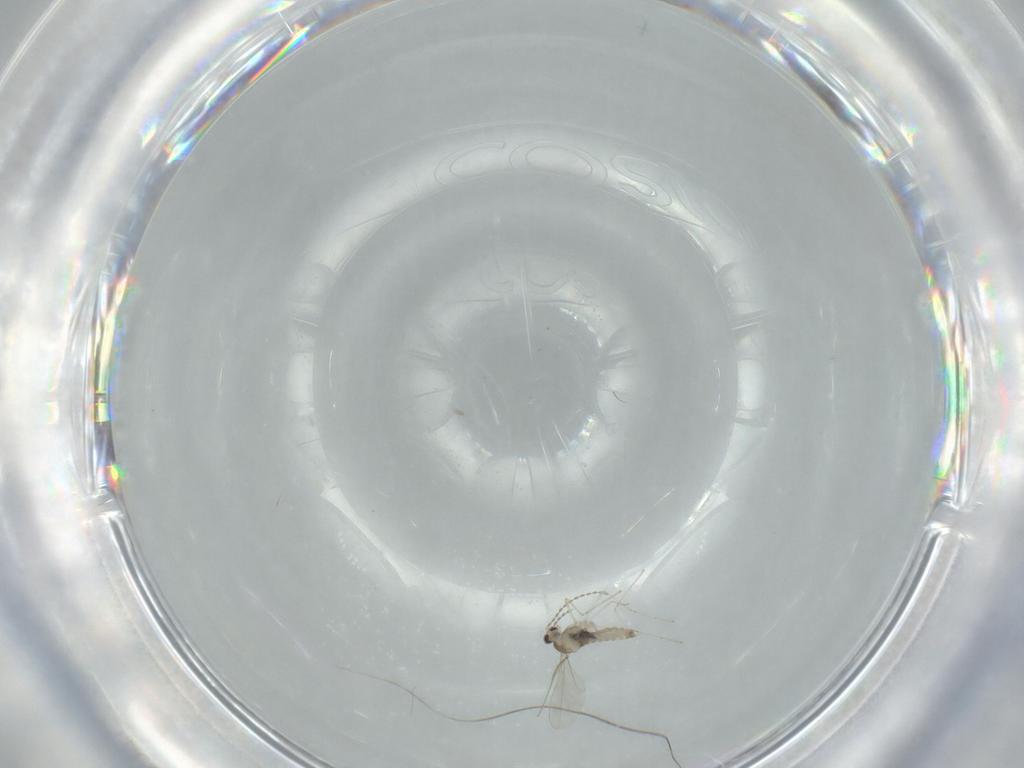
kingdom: Animalia
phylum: Arthropoda
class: Insecta
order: Diptera
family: Cecidomyiidae
